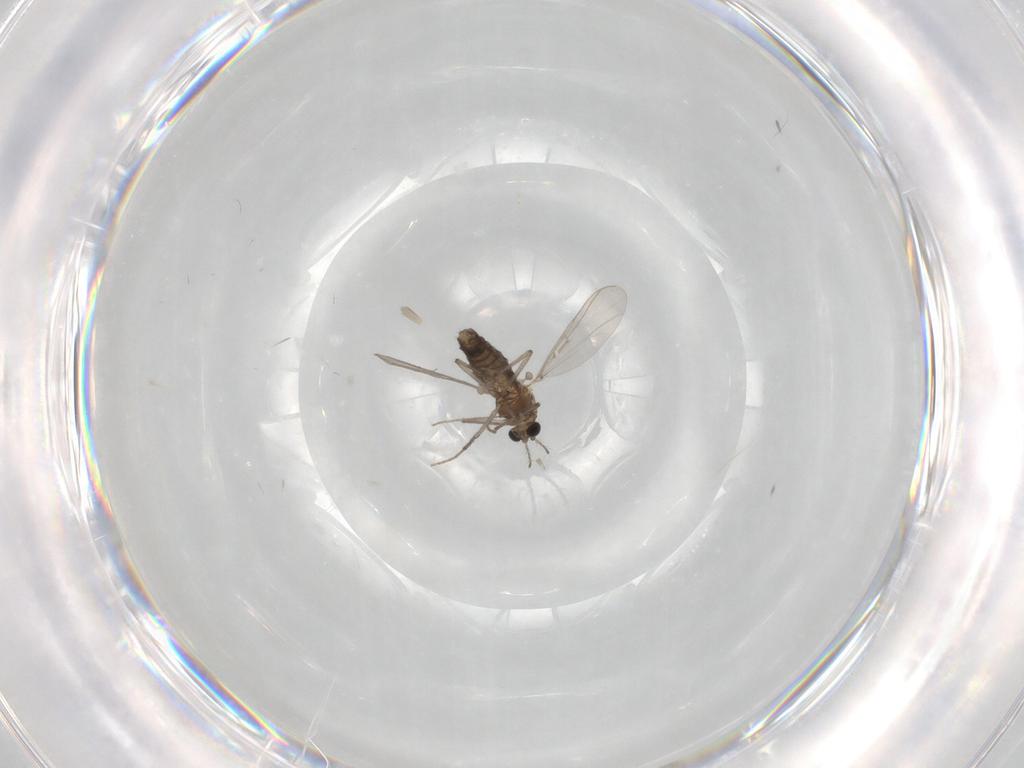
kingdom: Animalia
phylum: Arthropoda
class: Insecta
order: Diptera
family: Chironomidae
